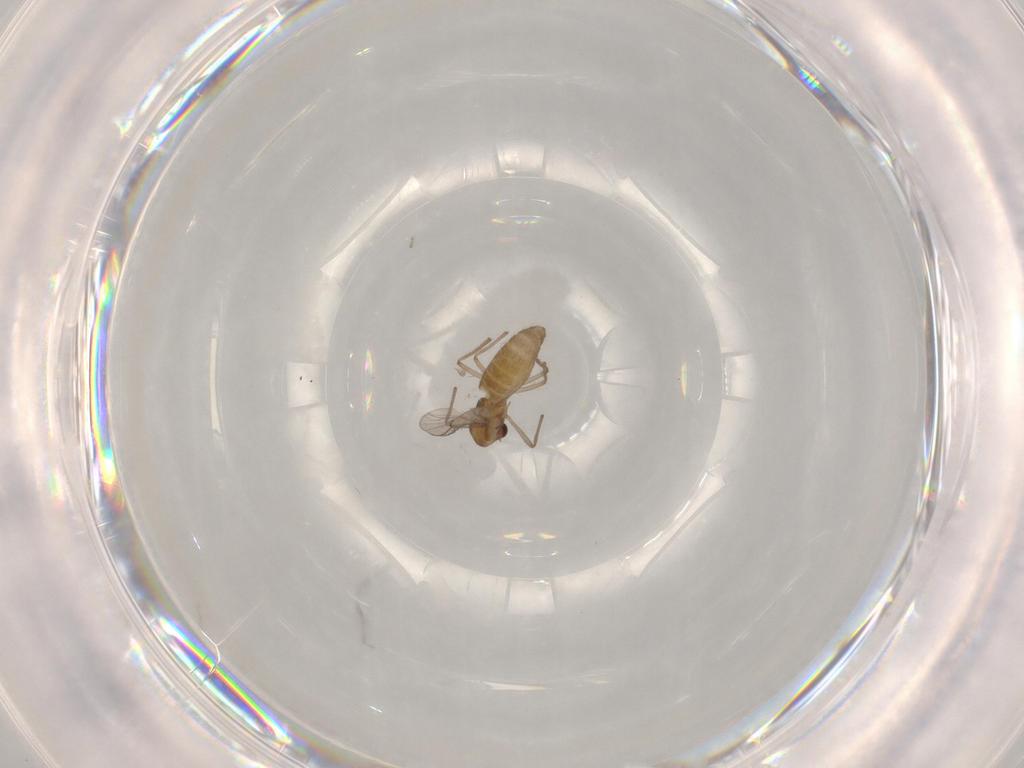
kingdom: Animalia
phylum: Arthropoda
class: Insecta
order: Diptera
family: Chironomidae
